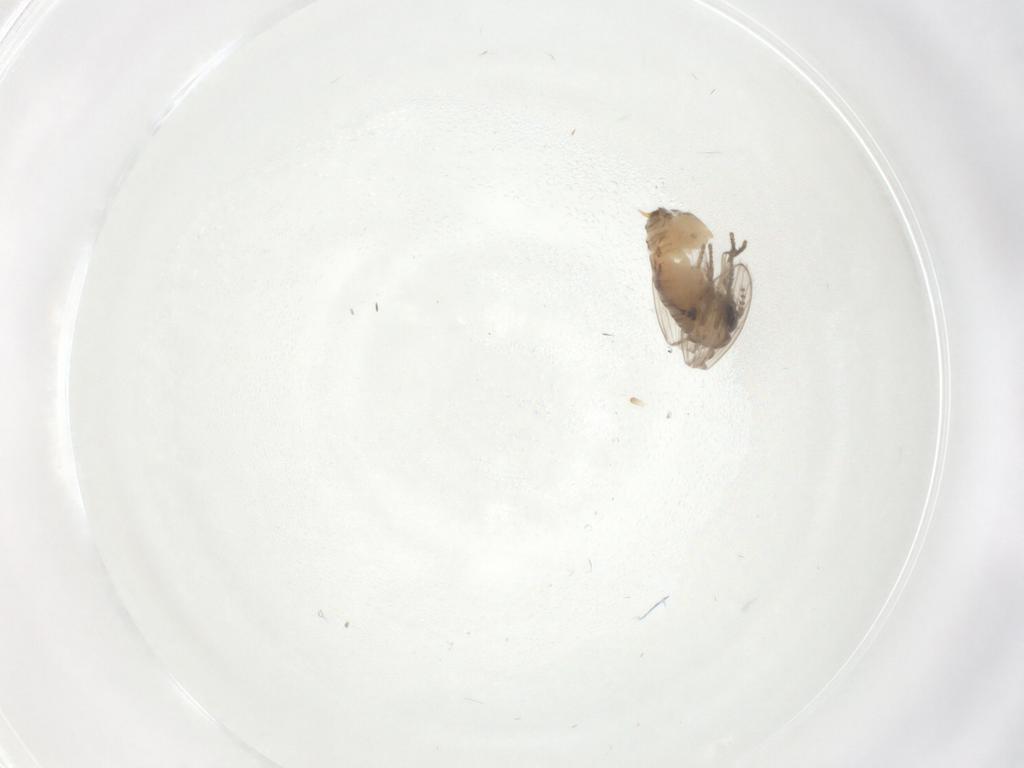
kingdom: Animalia
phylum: Arthropoda
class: Insecta
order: Diptera
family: Psychodidae
